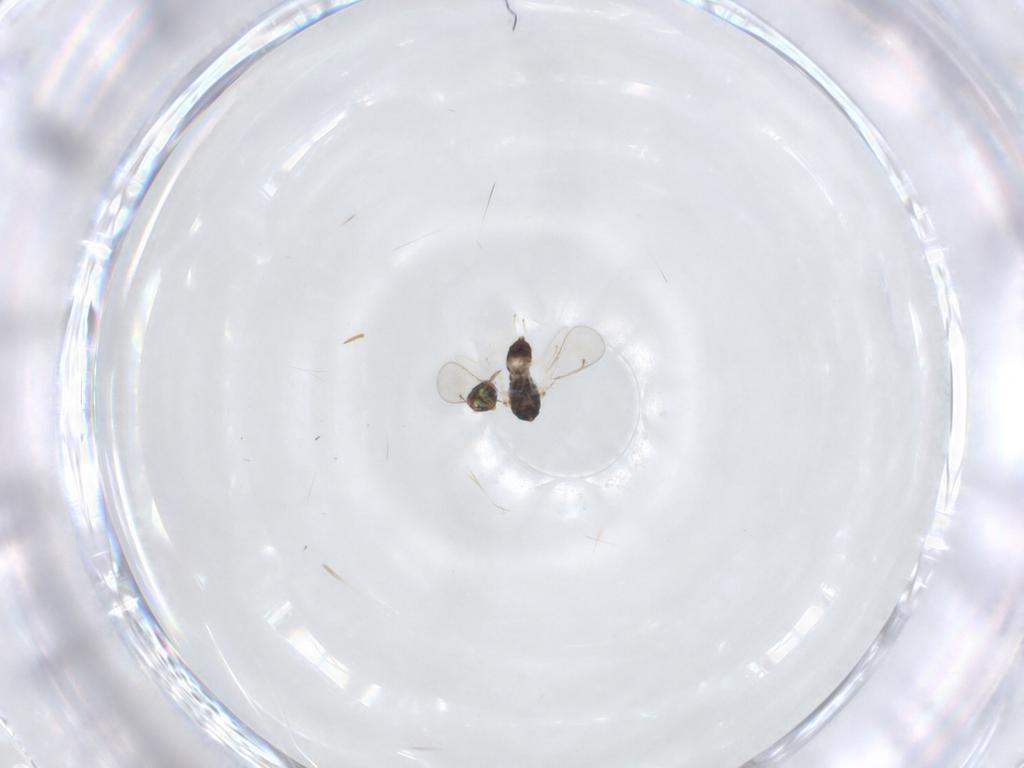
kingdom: Animalia
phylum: Arthropoda
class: Insecta
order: Hymenoptera
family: Eulophidae
